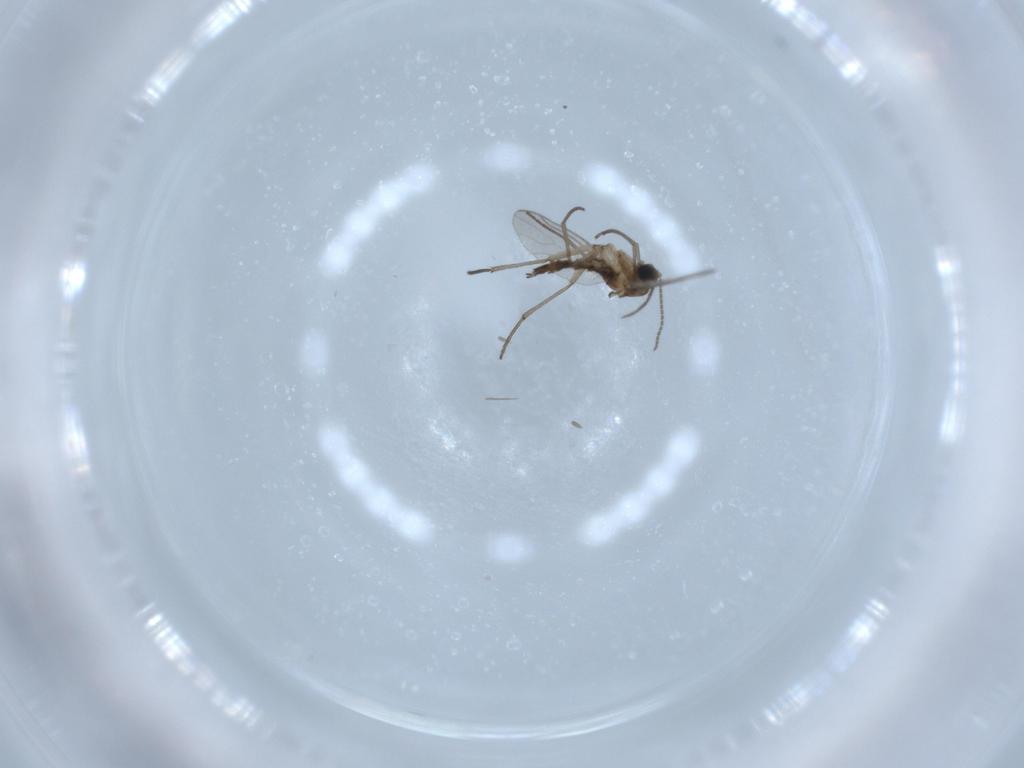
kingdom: Animalia
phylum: Arthropoda
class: Insecta
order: Diptera
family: Sciaridae
